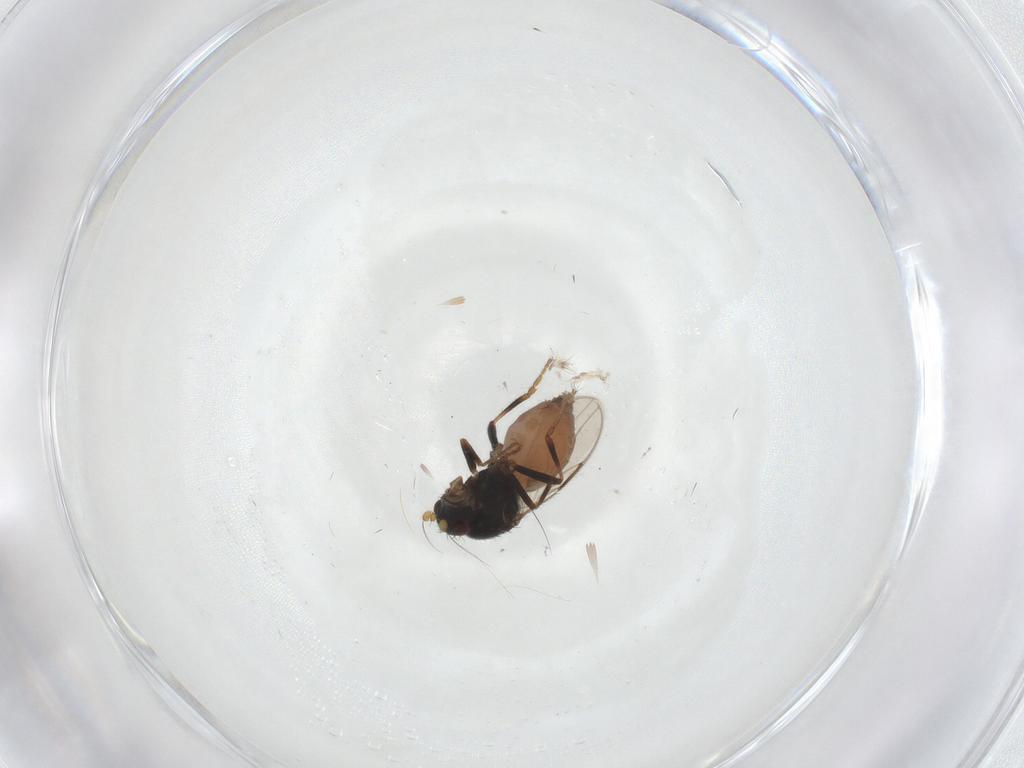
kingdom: Animalia
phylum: Arthropoda
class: Insecta
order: Diptera
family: Sphaeroceridae
